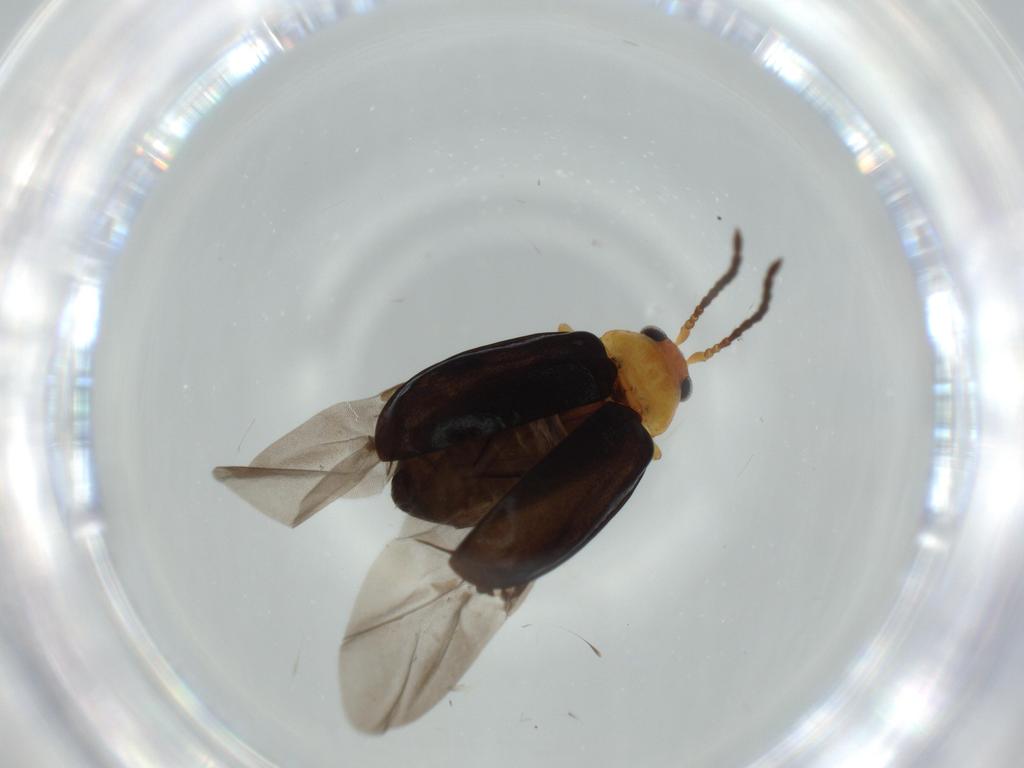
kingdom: Animalia
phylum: Arthropoda
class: Insecta
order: Coleoptera
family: Chrysomelidae
